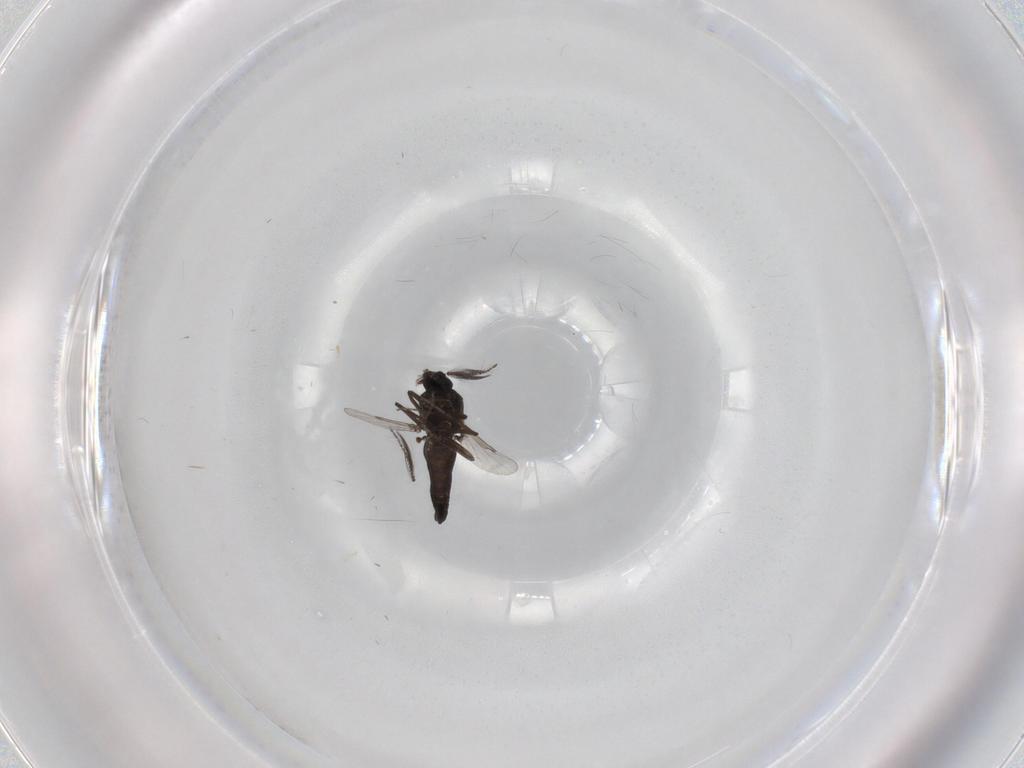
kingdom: Animalia
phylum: Arthropoda
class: Insecta
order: Diptera
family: Ceratopogonidae
